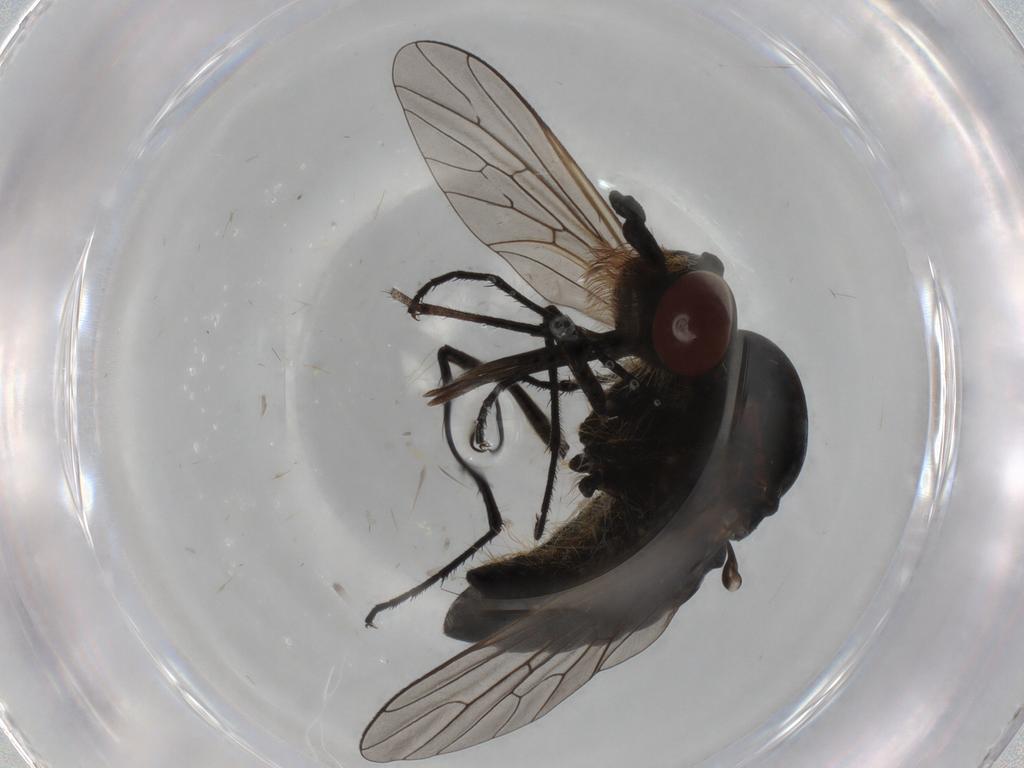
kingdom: Animalia
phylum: Arthropoda
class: Insecta
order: Diptera
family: Bombyliidae
